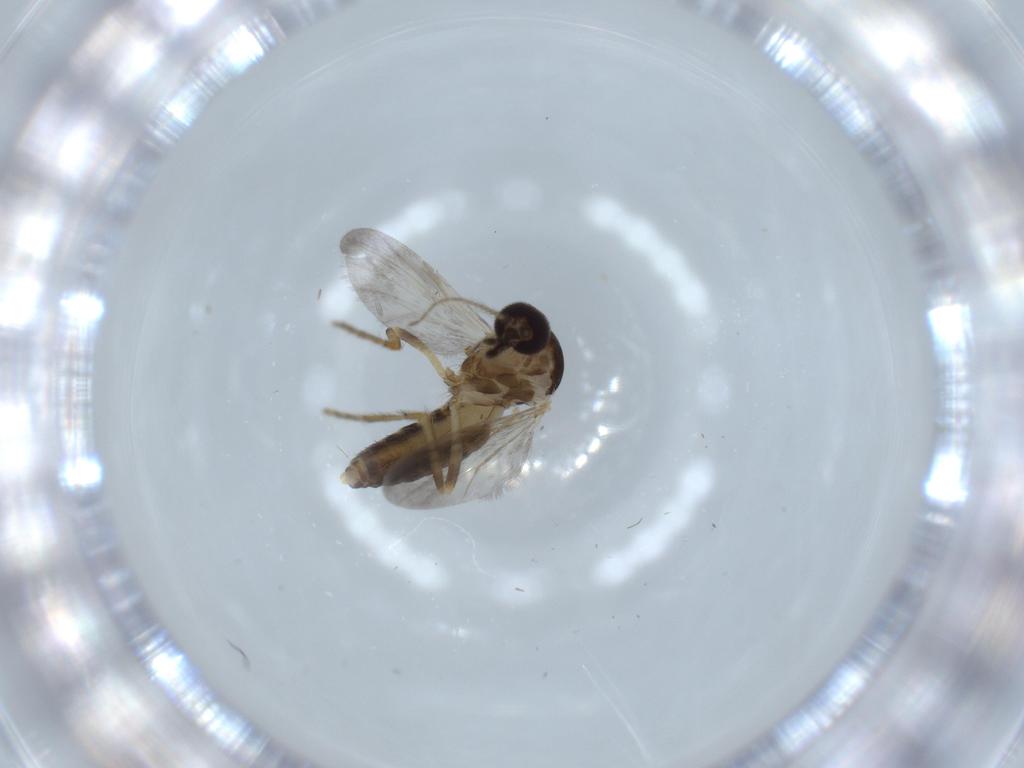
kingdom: Animalia
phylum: Arthropoda
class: Insecta
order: Diptera
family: Ceratopogonidae
